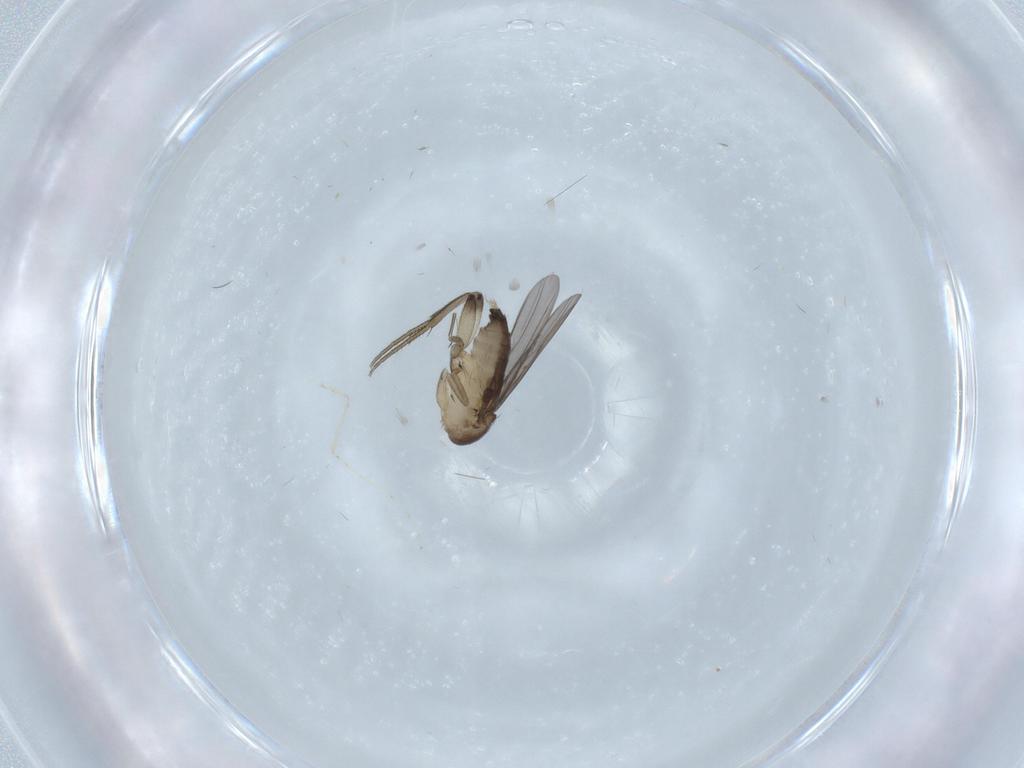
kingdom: Animalia
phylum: Arthropoda
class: Insecta
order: Diptera
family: Phoridae
